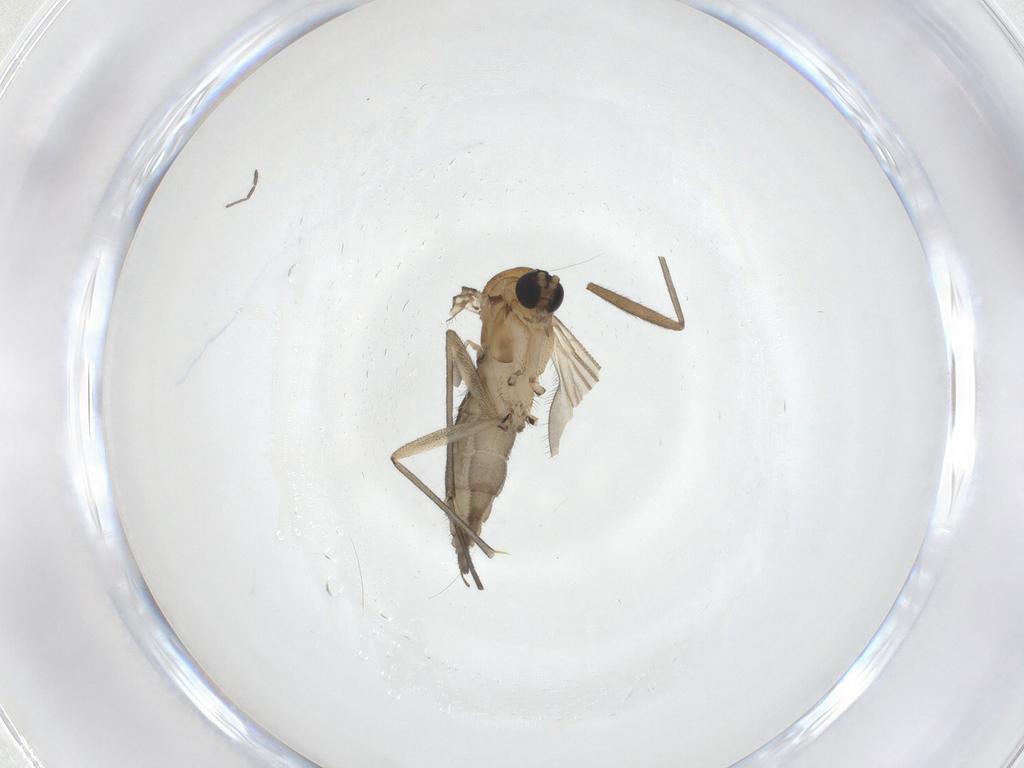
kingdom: Animalia
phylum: Arthropoda
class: Insecta
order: Diptera
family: Sciaridae
